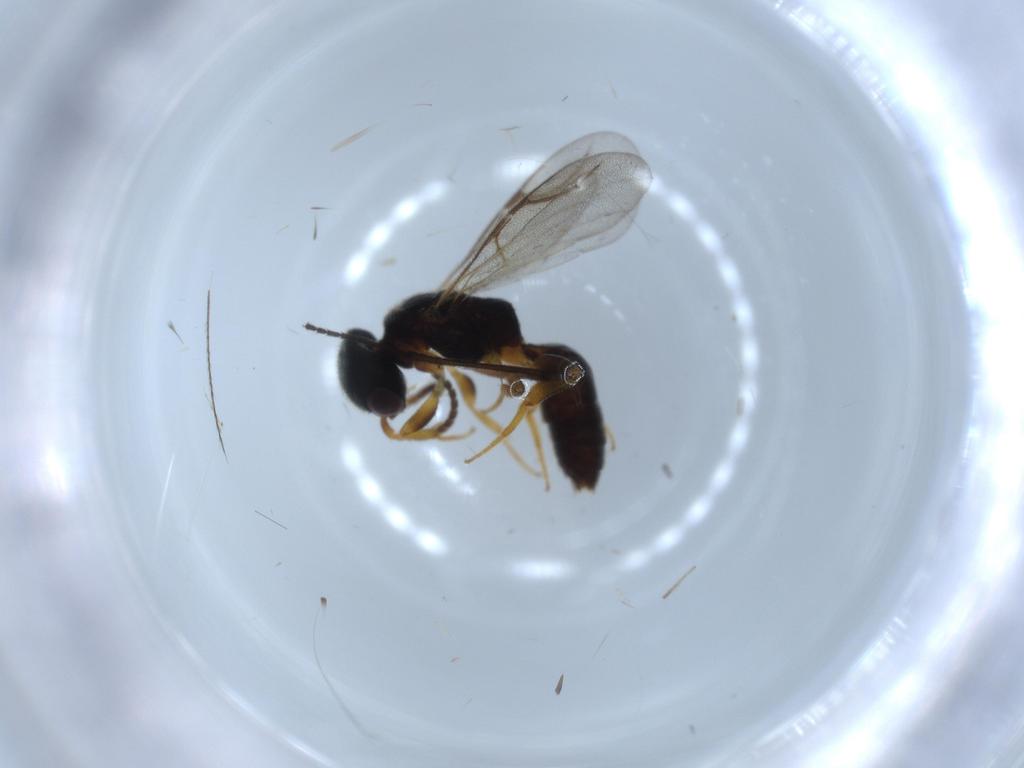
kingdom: Animalia
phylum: Arthropoda
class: Insecta
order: Hymenoptera
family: Bethylidae
